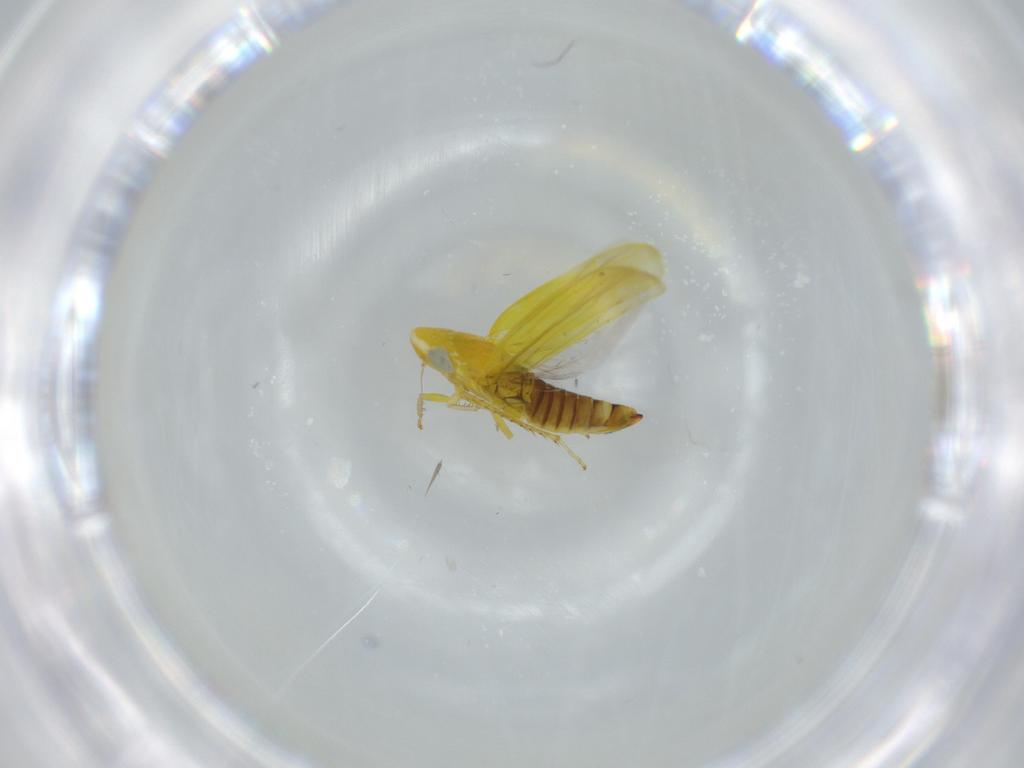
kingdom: Animalia
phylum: Arthropoda
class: Insecta
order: Hemiptera
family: Cicadellidae
